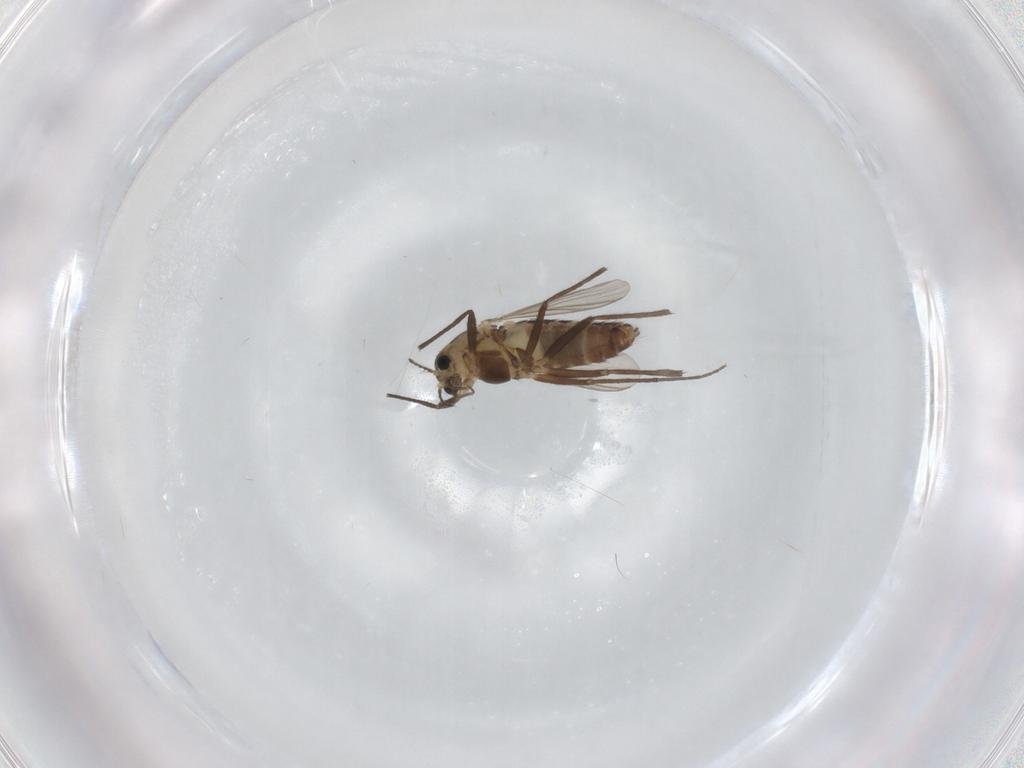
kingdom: Animalia
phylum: Arthropoda
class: Insecta
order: Diptera
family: Chironomidae
